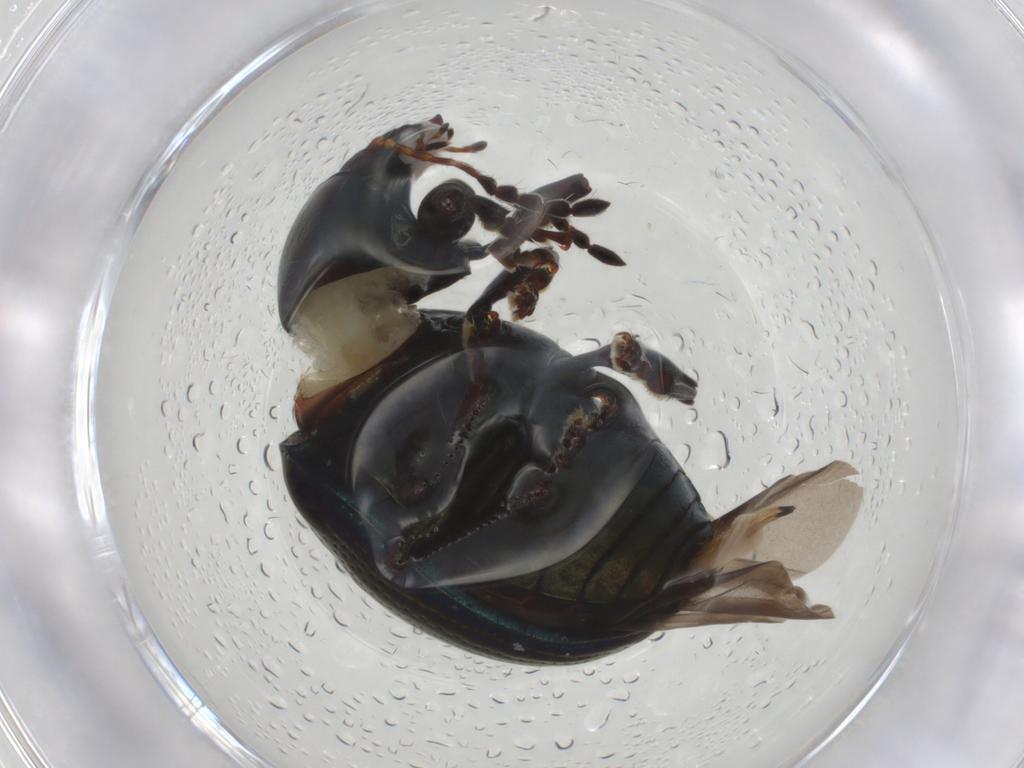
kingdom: Animalia
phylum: Arthropoda
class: Insecta
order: Coleoptera
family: Chrysomelidae
